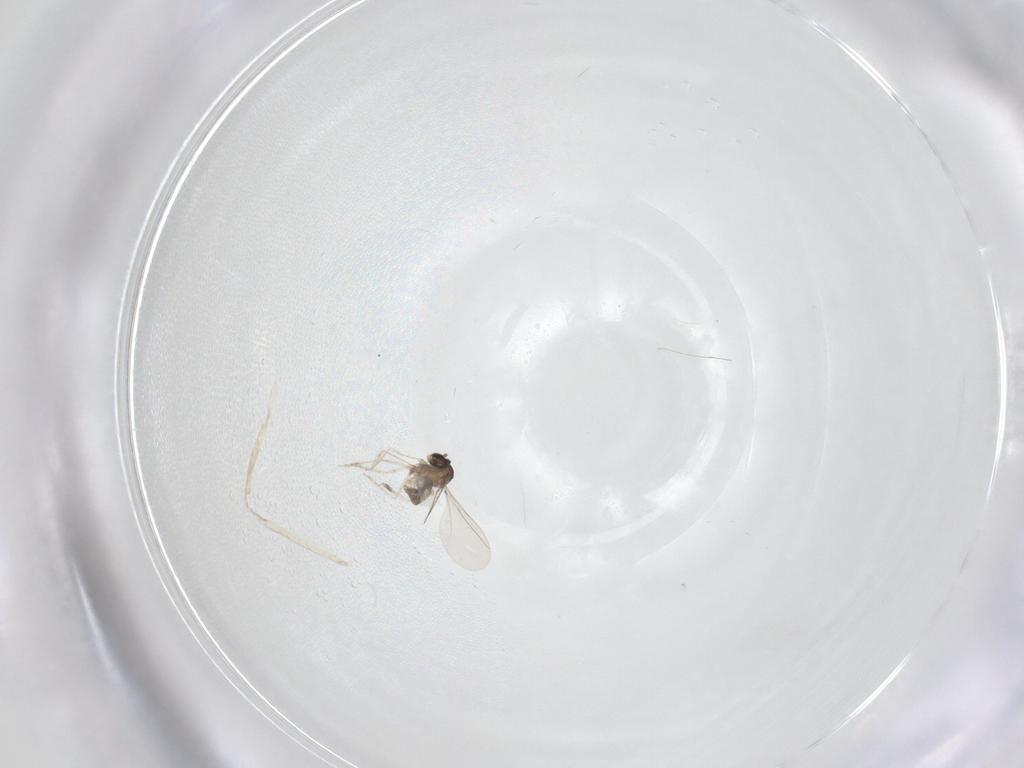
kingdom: Animalia
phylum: Arthropoda
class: Insecta
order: Diptera
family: Cecidomyiidae
